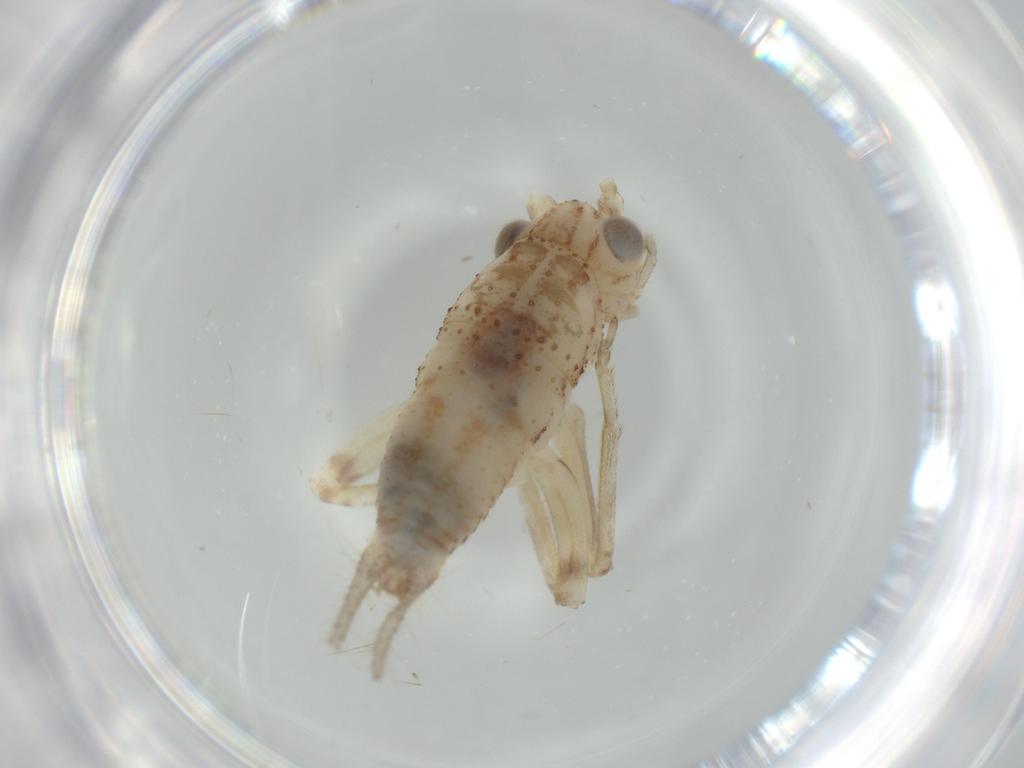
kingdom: Animalia
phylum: Arthropoda
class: Insecta
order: Orthoptera
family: Trigonidiidae
